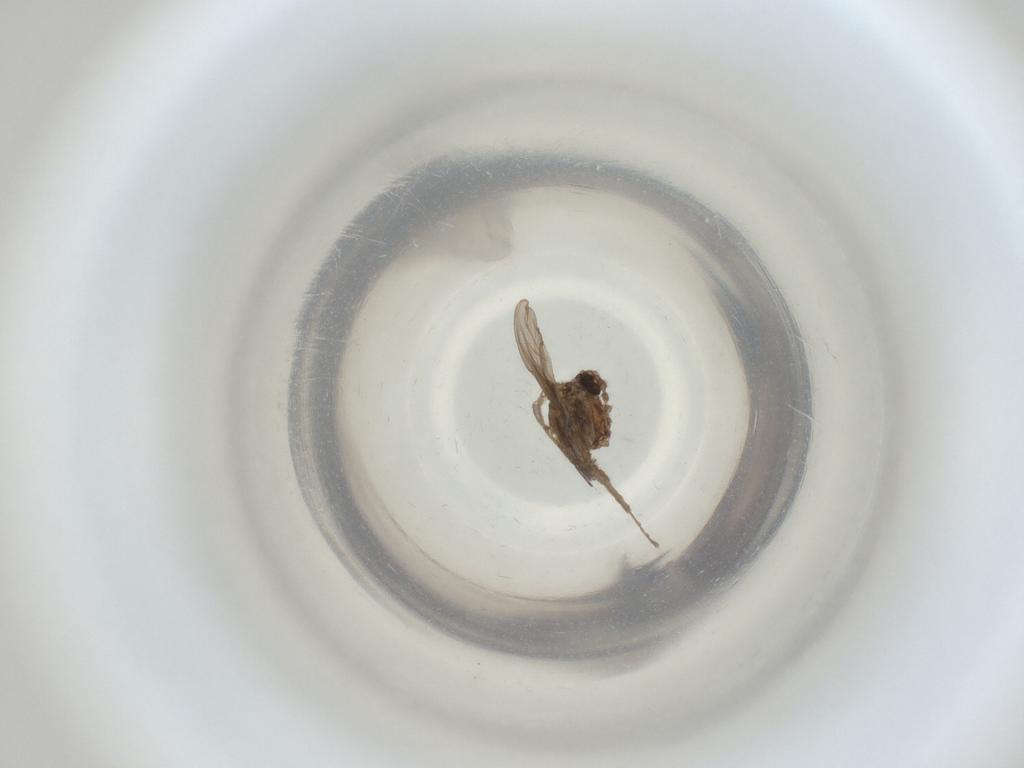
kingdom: Animalia
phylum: Arthropoda
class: Insecta
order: Diptera
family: Cecidomyiidae
